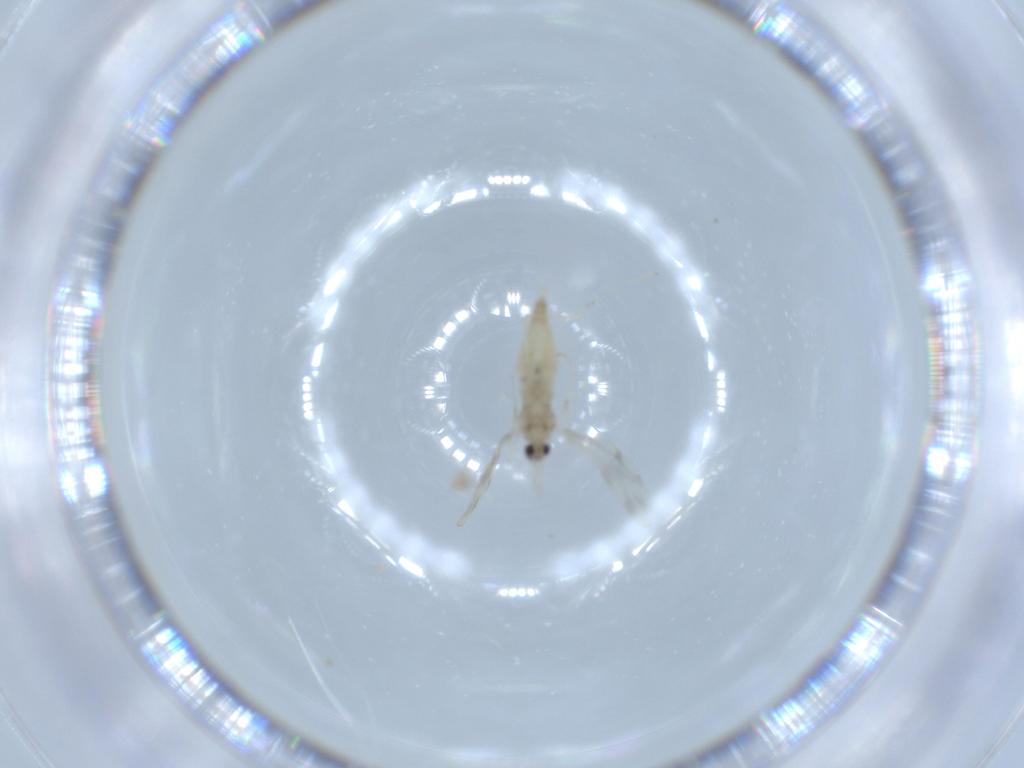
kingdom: Animalia
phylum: Arthropoda
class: Insecta
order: Diptera
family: Cecidomyiidae
